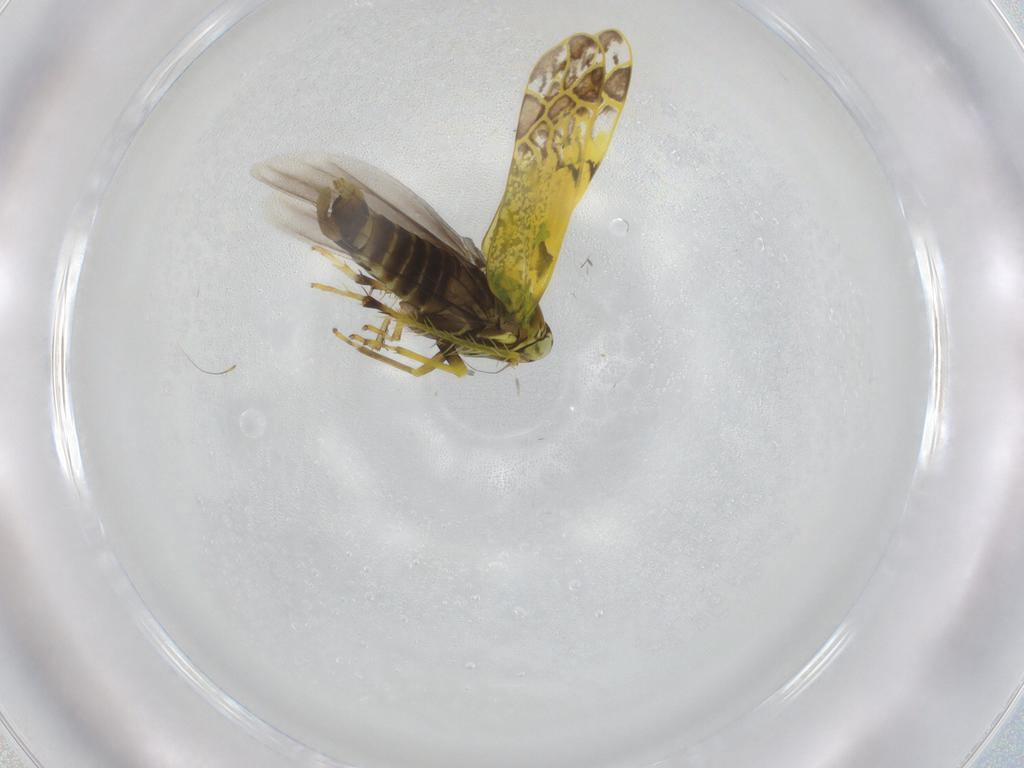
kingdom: Animalia
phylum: Arthropoda
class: Insecta
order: Hemiptera
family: Cicadellidae
